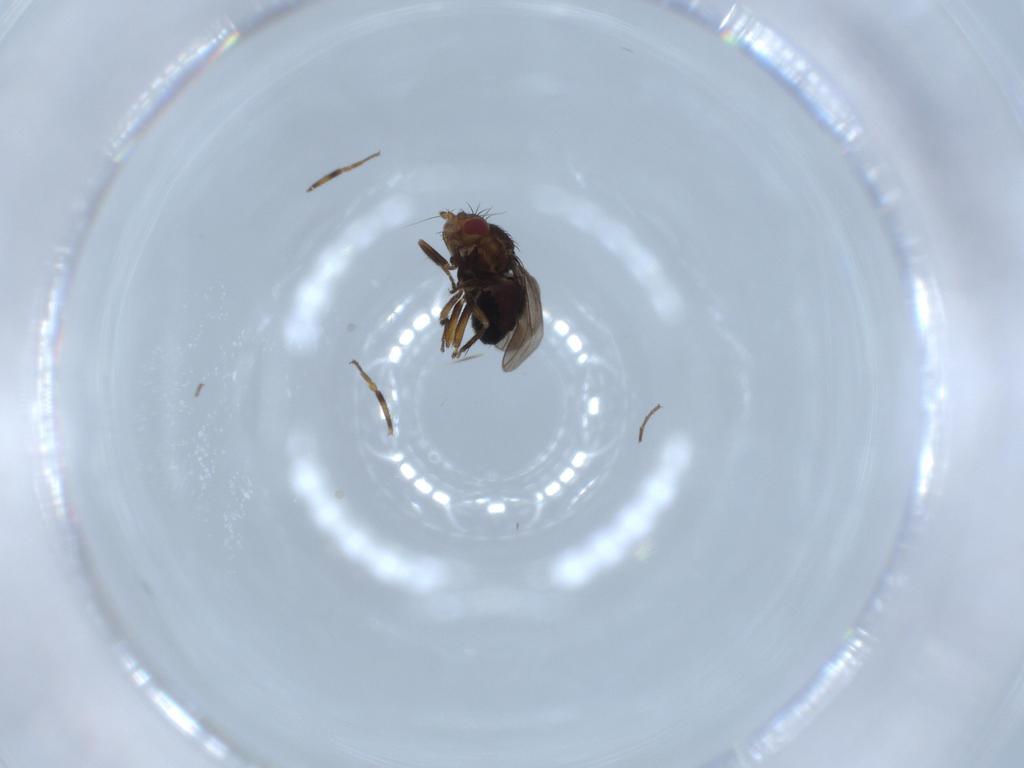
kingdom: Animalia
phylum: Arthropoda
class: Insecta
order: Diptera
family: Sphaeroceridae
